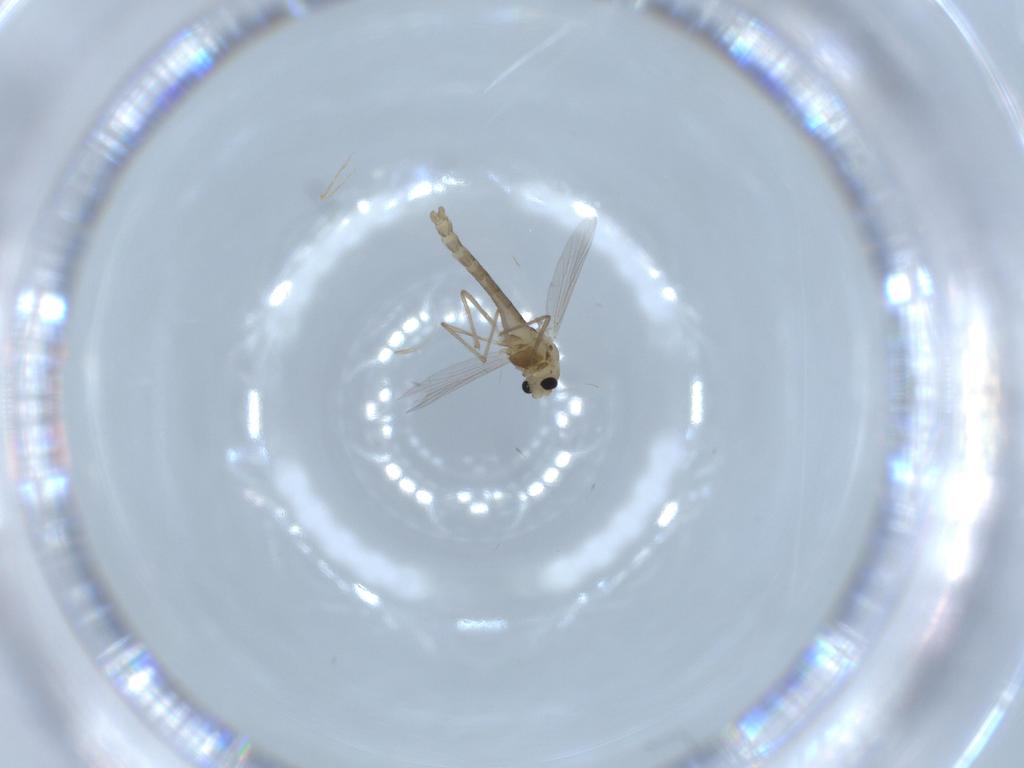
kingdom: Animalia
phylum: Arthropoda
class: Insecta
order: Diptera
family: Chironomidae
